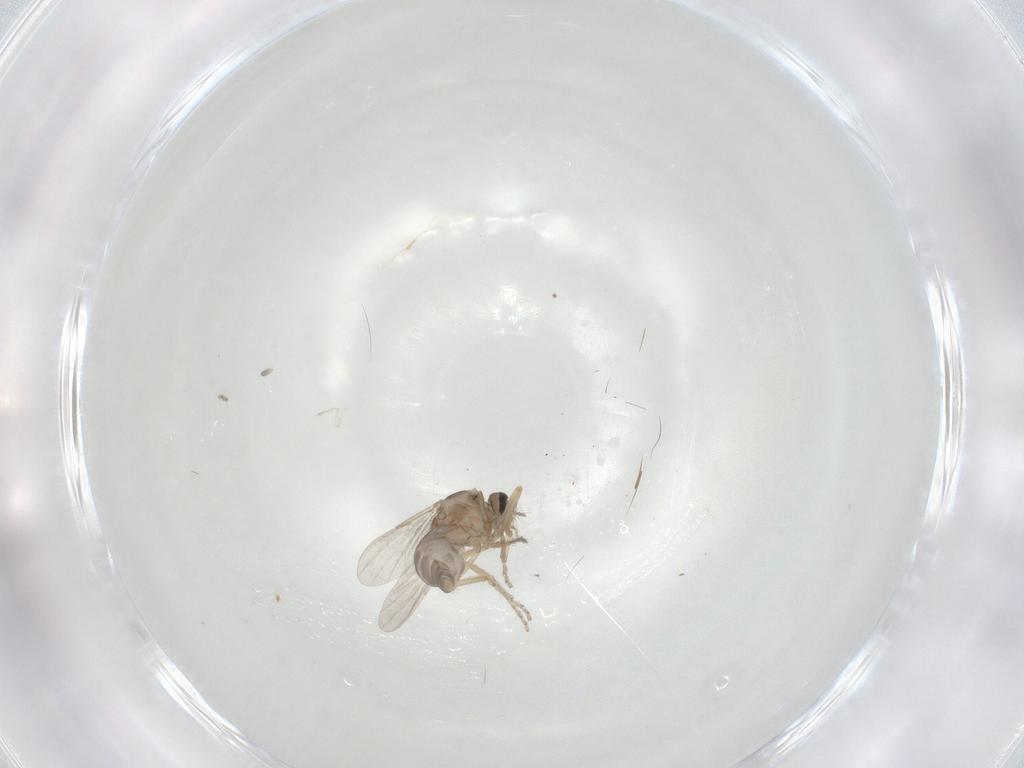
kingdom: Animalia
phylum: Arthropoda
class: Insecta
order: Diptera
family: Ceratopogonidae
